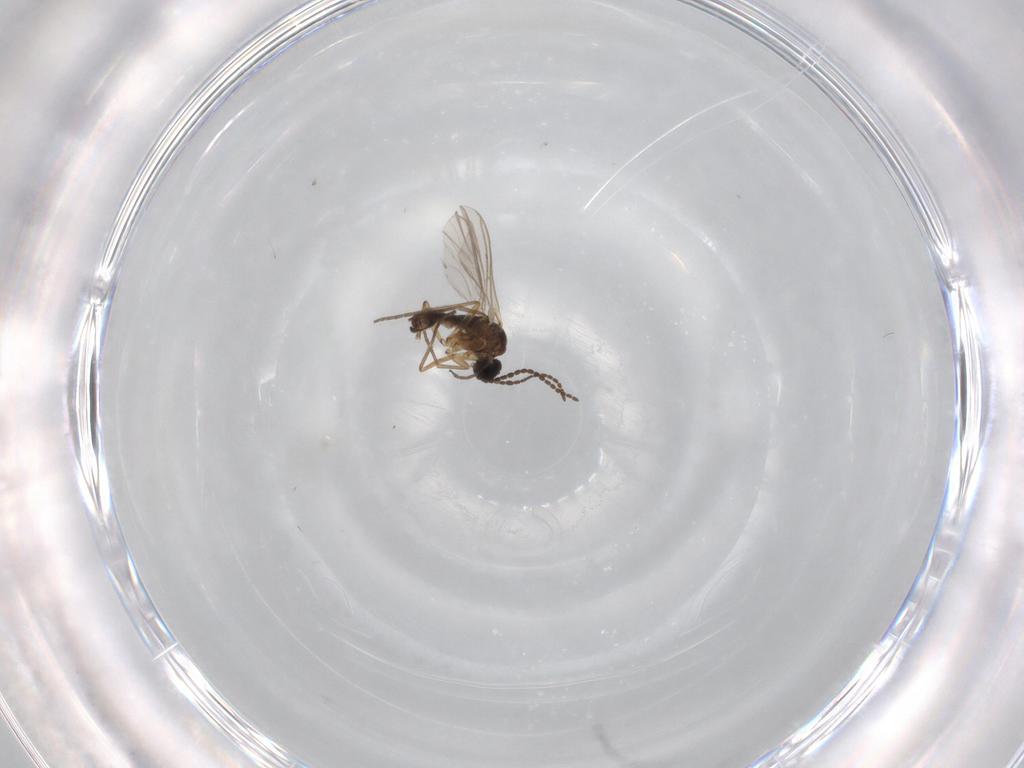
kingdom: Animalia
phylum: Arthropoda
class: Insecta
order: Diptera
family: Sciaridae
